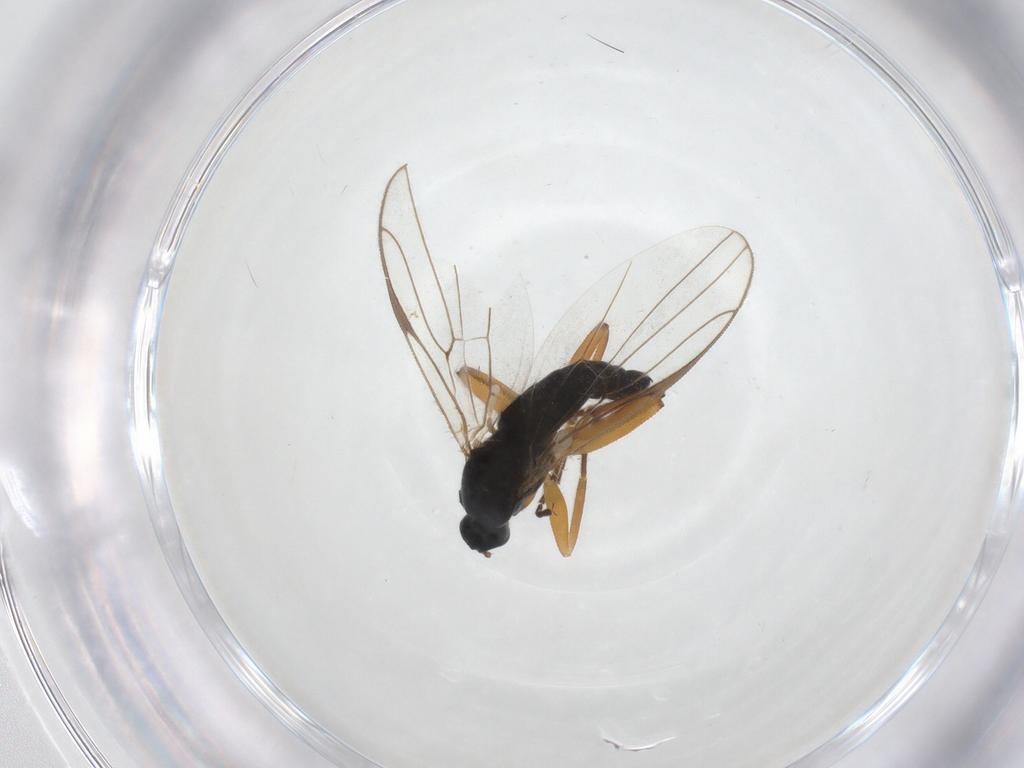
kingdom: Animalia
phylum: Arthropoda
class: Insecta
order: Diptera
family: Hybotidae
